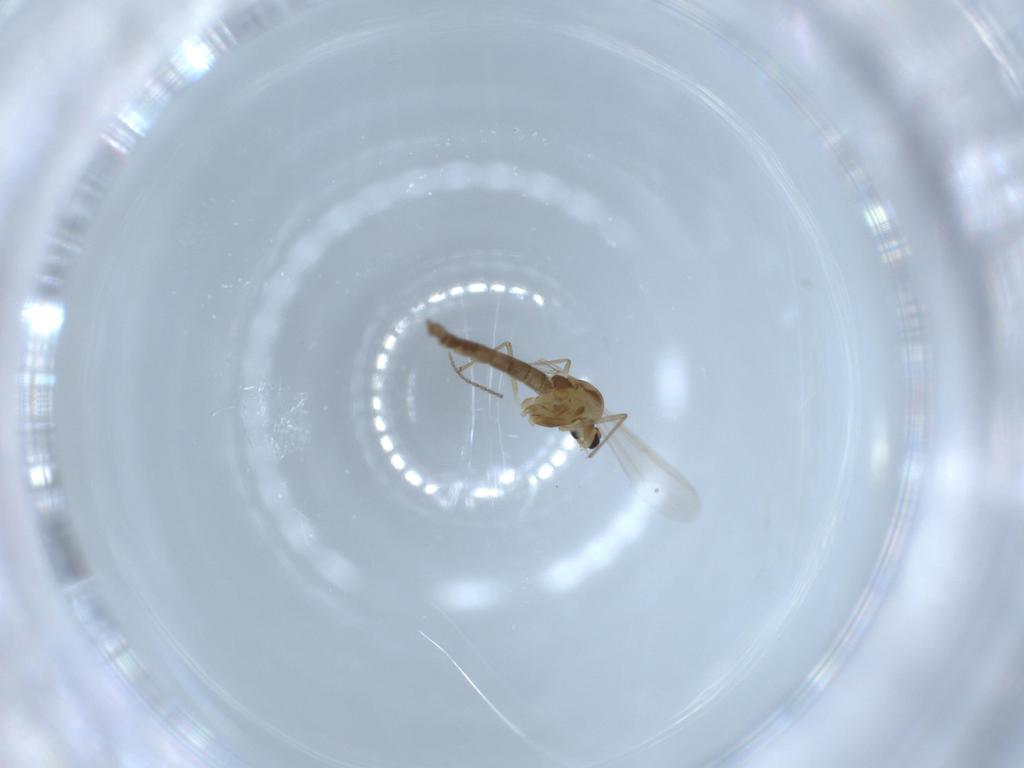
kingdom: Animalia
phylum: Arthropoda
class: Insecta
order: Diptera
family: Chironomidae
